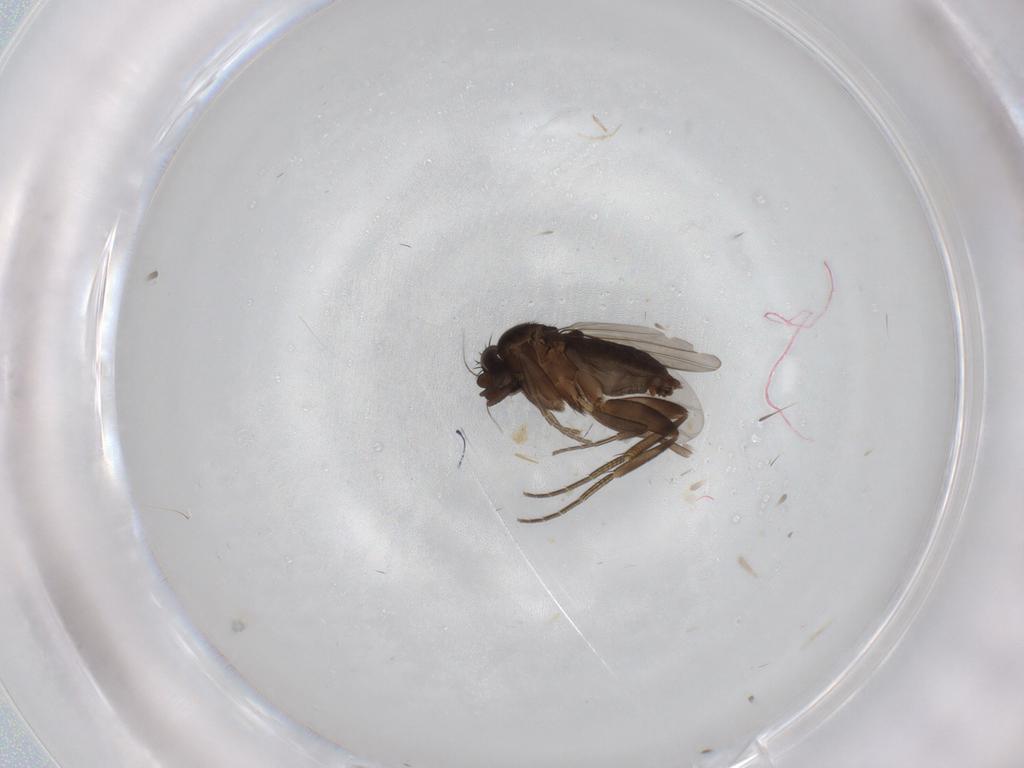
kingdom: Animalia
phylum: Arthropoda
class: Insecta
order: Diptera
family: Phoridae
